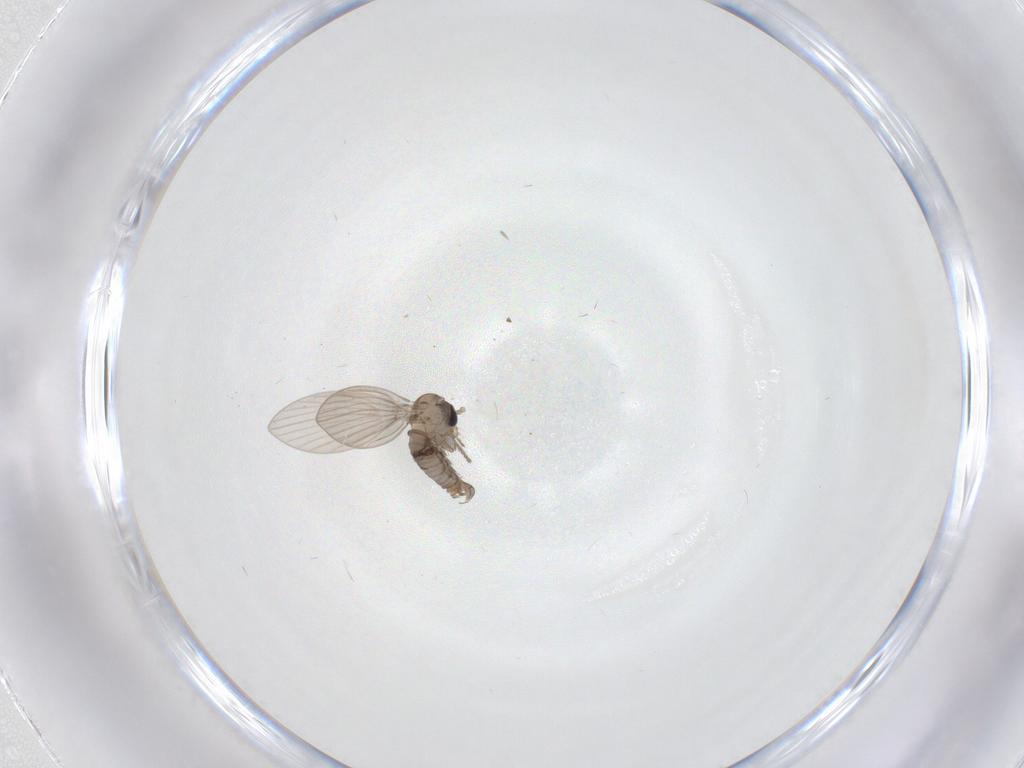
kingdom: Animalia
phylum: Arthropoda
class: Insecta
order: Diptera
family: Psychodidae
